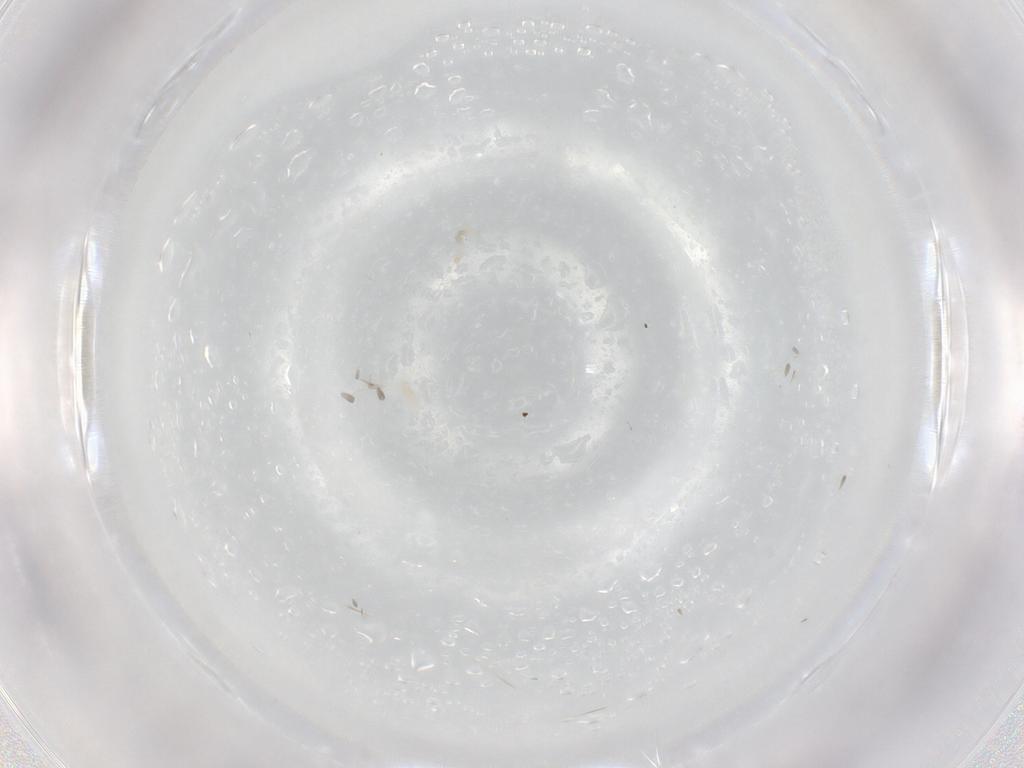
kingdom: Animalia
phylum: Arthropoda
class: Arachnida
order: Trombidiformes
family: Eupodidae
